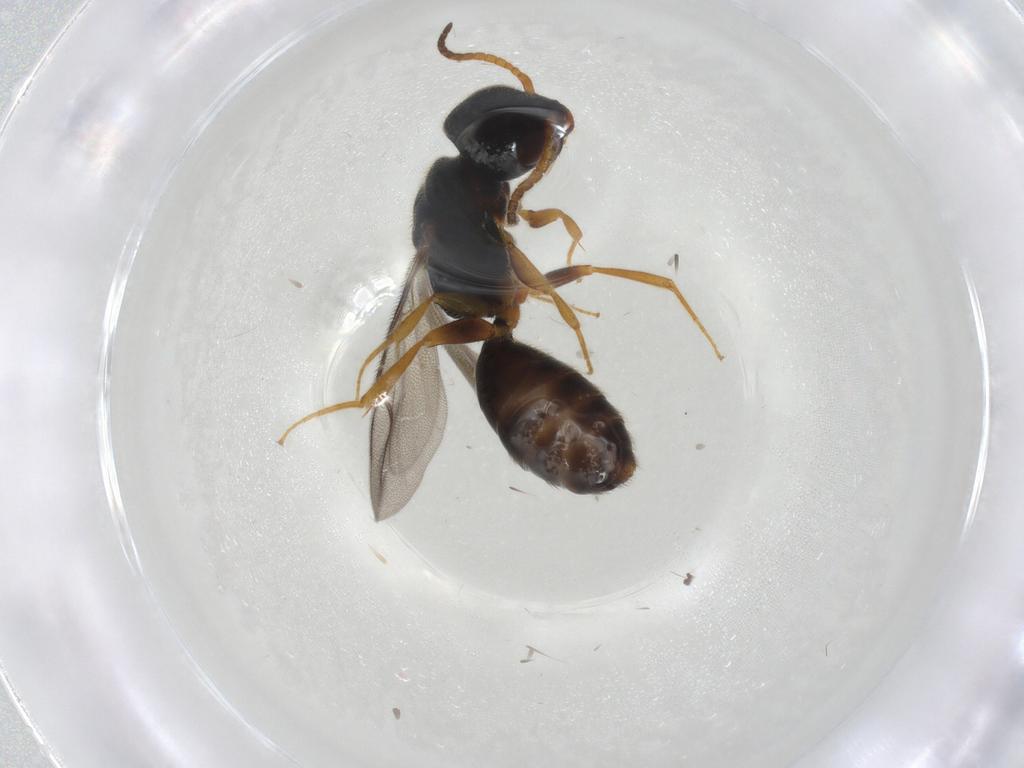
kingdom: Animalia
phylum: Arthropoda
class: Insecta
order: Hymenoptera
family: Bethylidae
